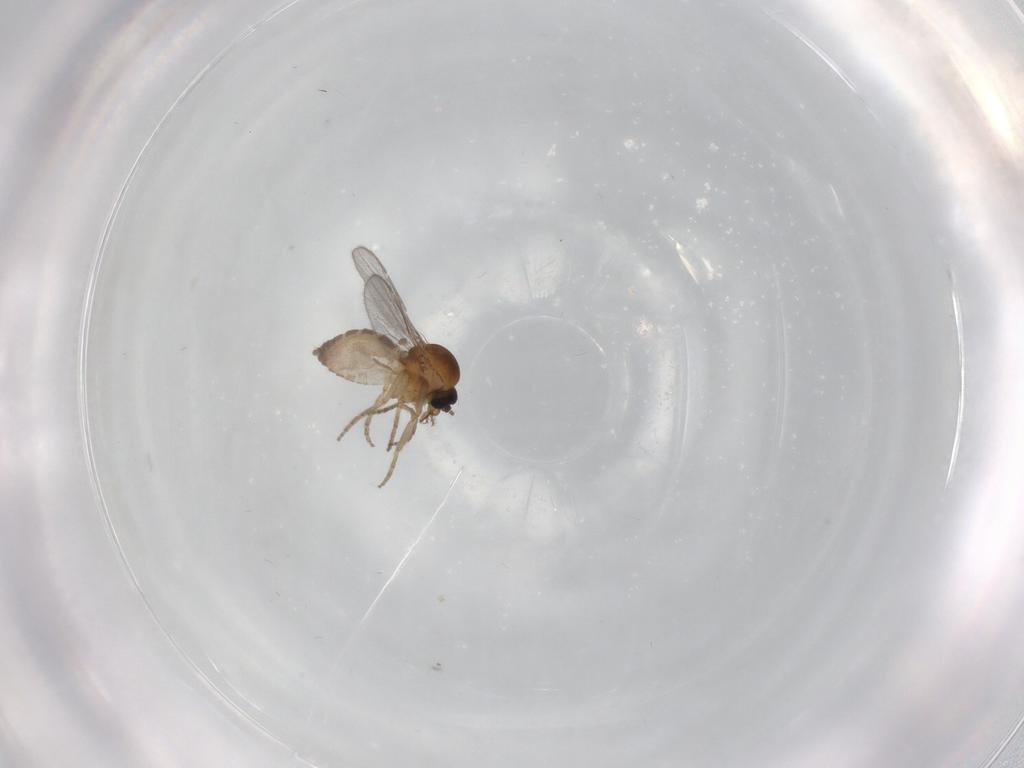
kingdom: Animalia
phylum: Arthropoda
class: Insecta
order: Diptera
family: Ceratopogonidae
